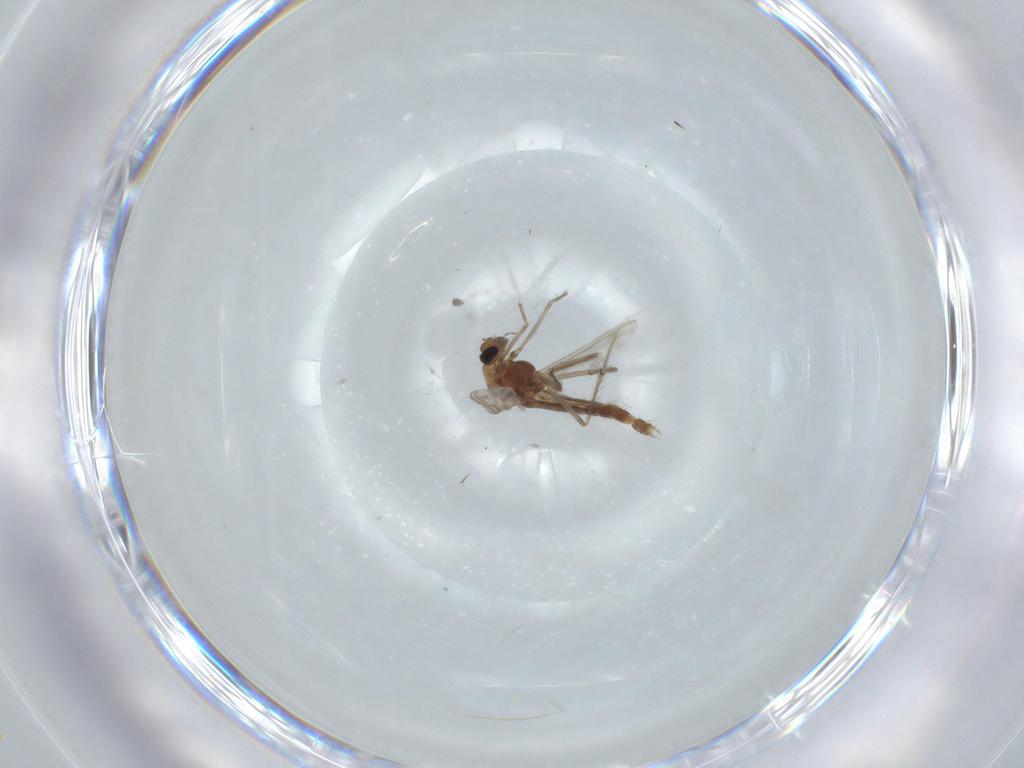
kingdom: Animalia
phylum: Arthropoda
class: Insecta
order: Diptera
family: Chironomidae
